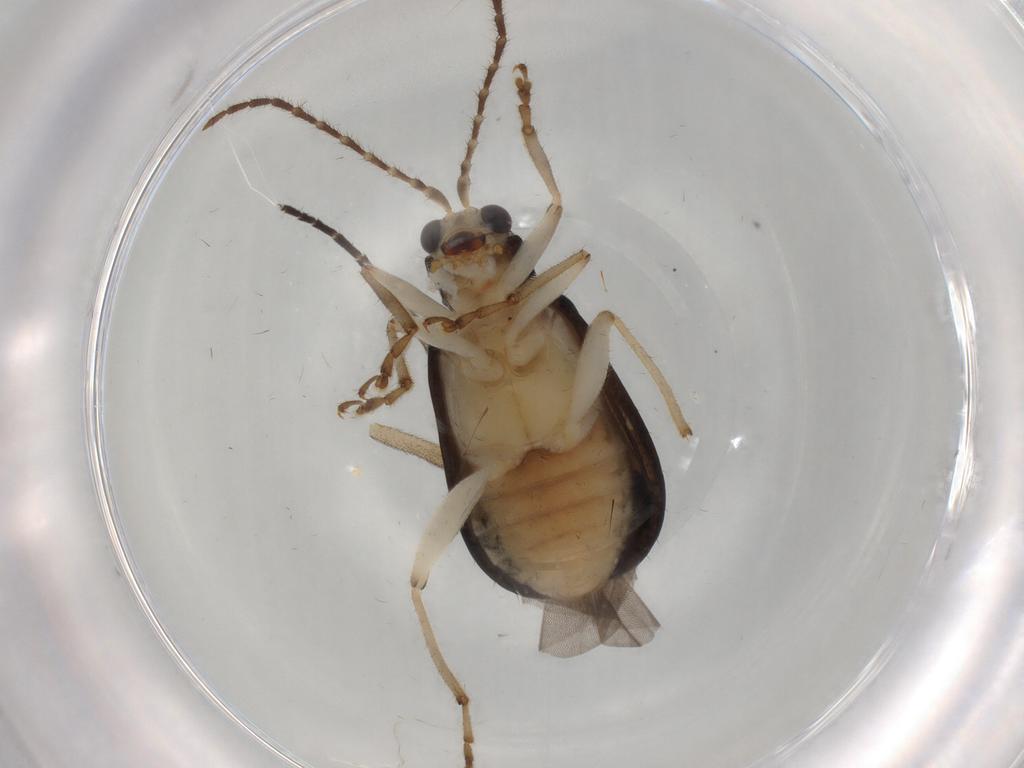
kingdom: Animalia
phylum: Arthropoda
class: Insecta
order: Coleoptera
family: Chrysomelidae
